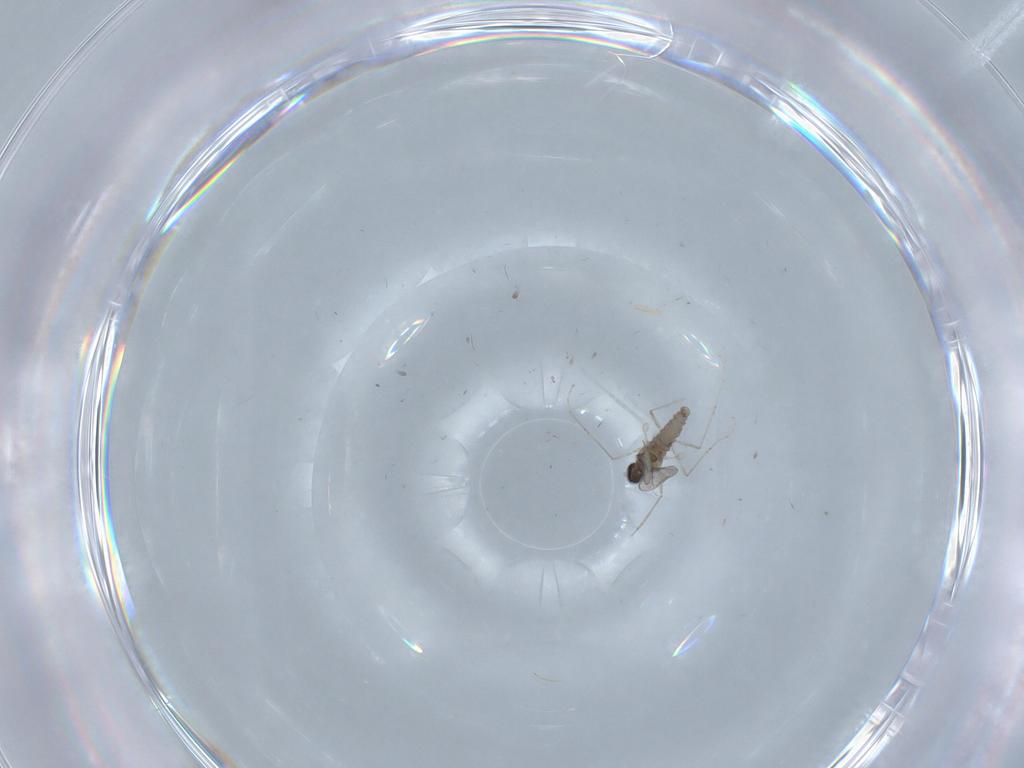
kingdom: Animalia
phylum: Arthropoda
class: Insecta
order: Diptera
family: Cecidomyiidae
